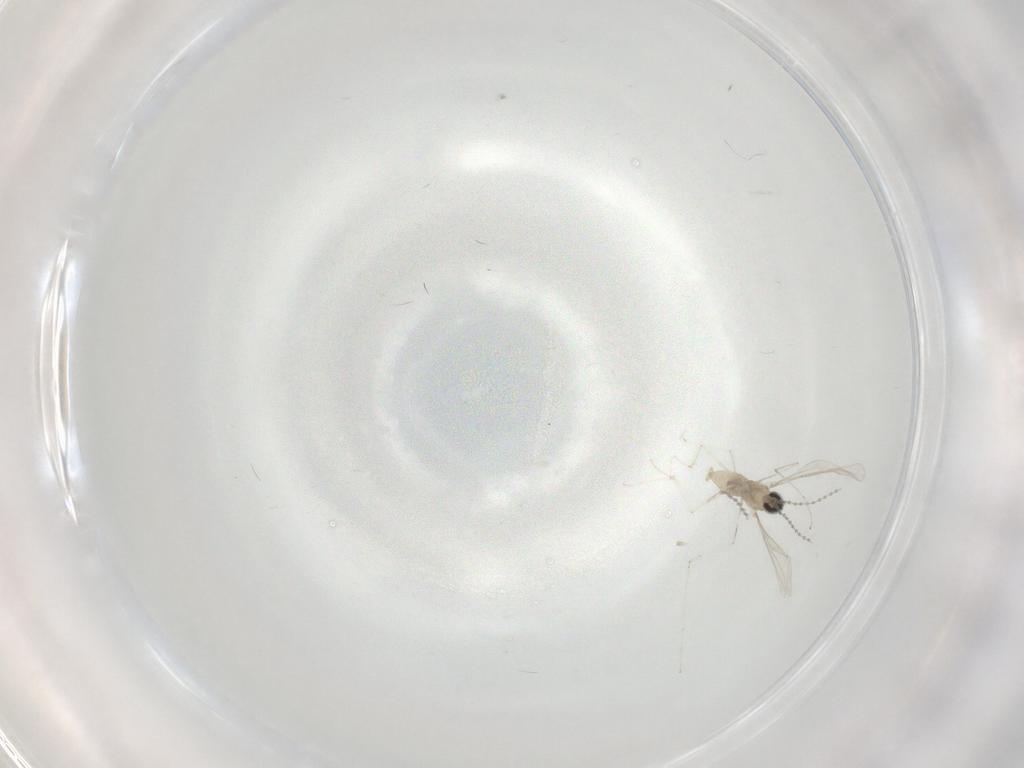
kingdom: Animalia
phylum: Arthropoda
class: Insecta
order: Diptera
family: Cecidomyiidae
